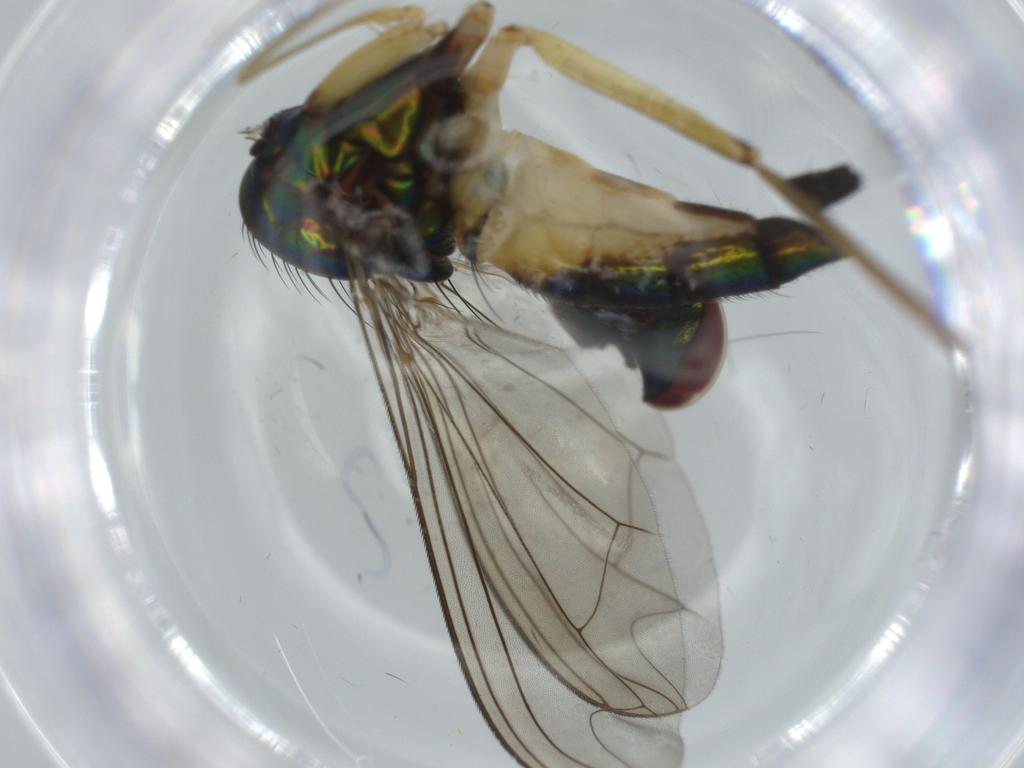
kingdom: Animalia
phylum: Arthropoda
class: Insecta
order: Diptera
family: Dolichopodidae
